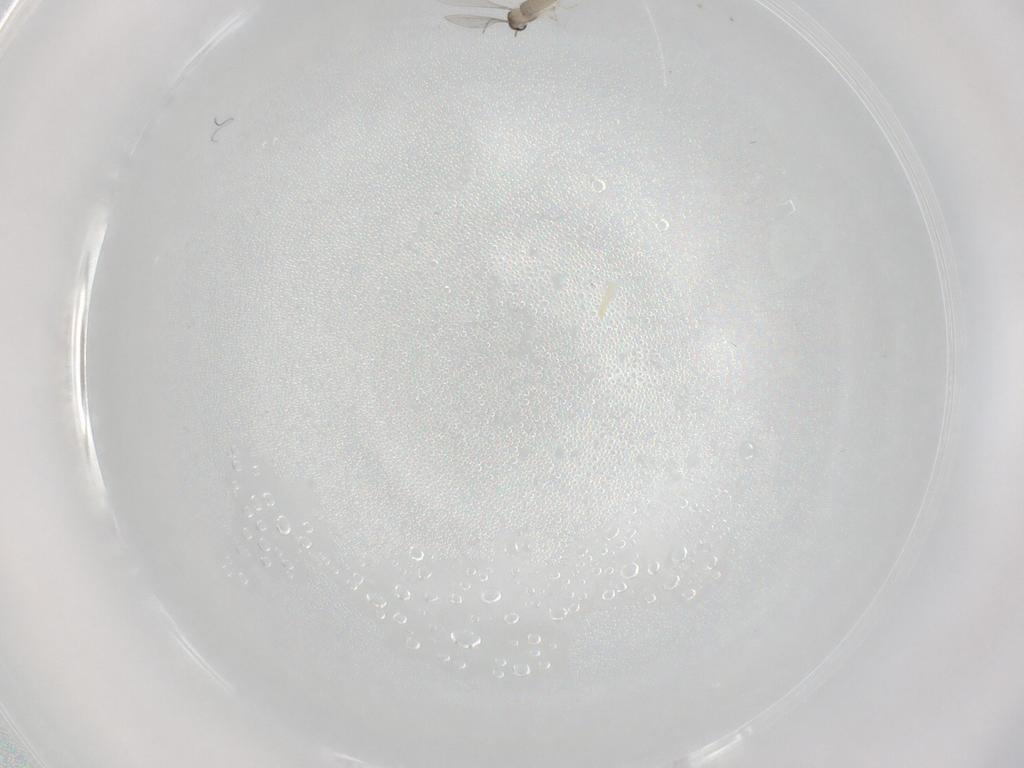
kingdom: Animalia
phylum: Arthropoda
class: Insecta
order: Diptera
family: Cecidomyiidae
